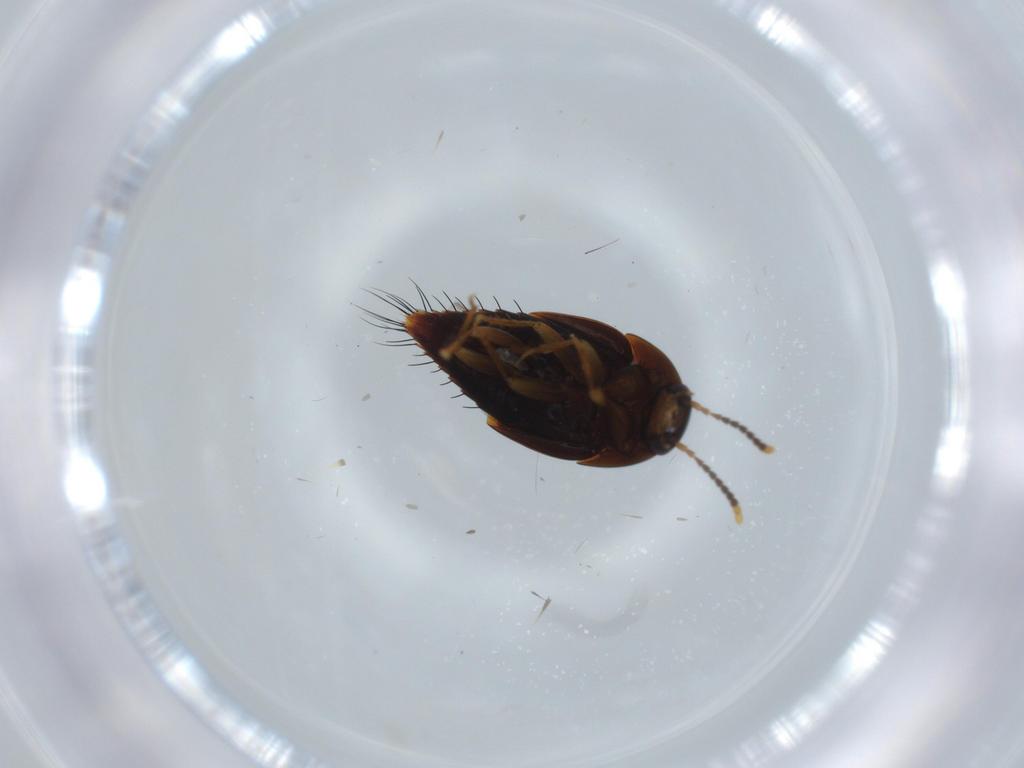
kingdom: Animalia
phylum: Arthropoda
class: Insecta
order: Coleoptera
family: Staphylinidae
